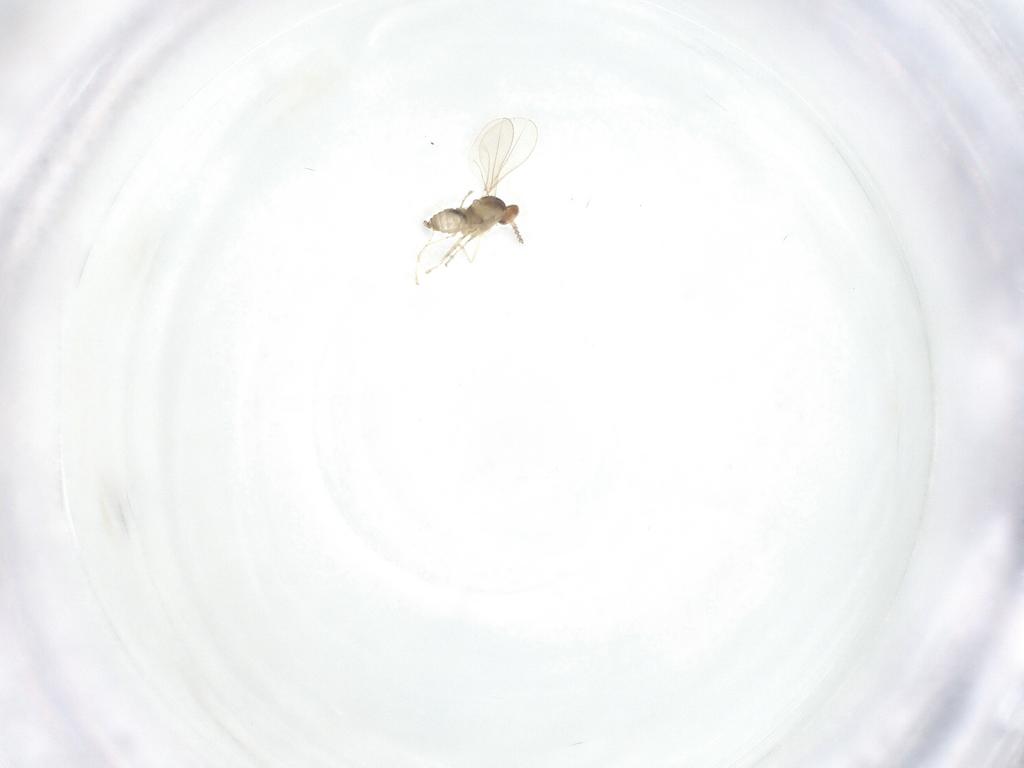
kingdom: Animalia
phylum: Arthropoda
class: Insecta
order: Diptera
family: Cecidomyiidae
